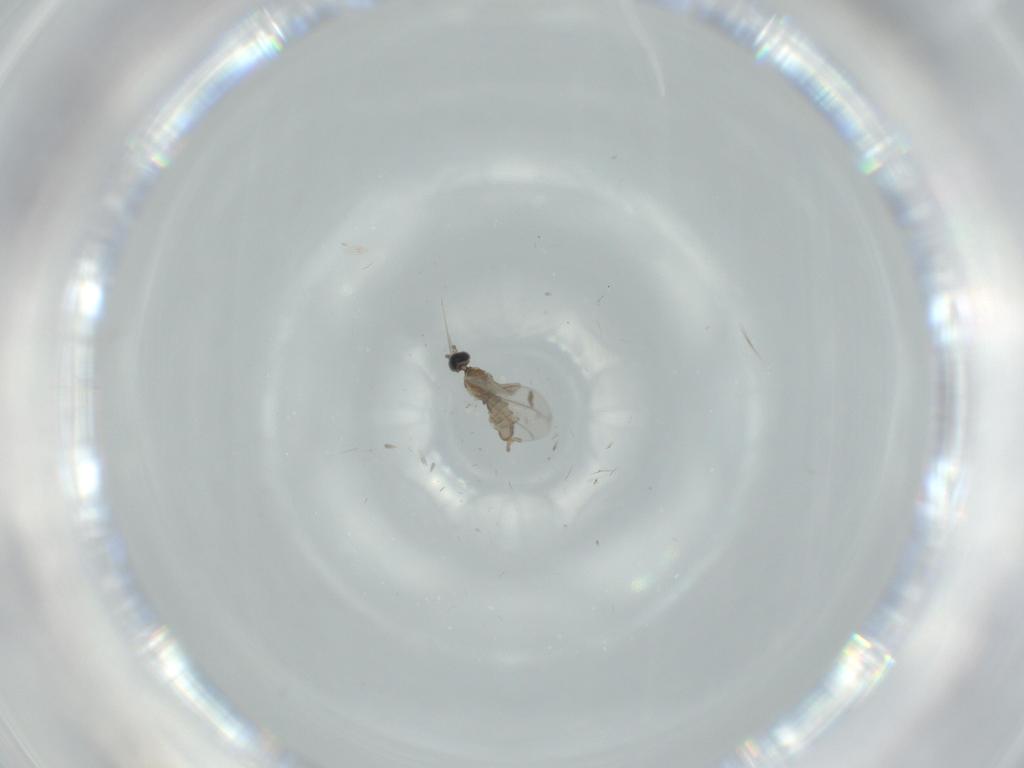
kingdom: Animalia
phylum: Arthropoda
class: Insecta
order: Diptera
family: Cecidomyiidae
